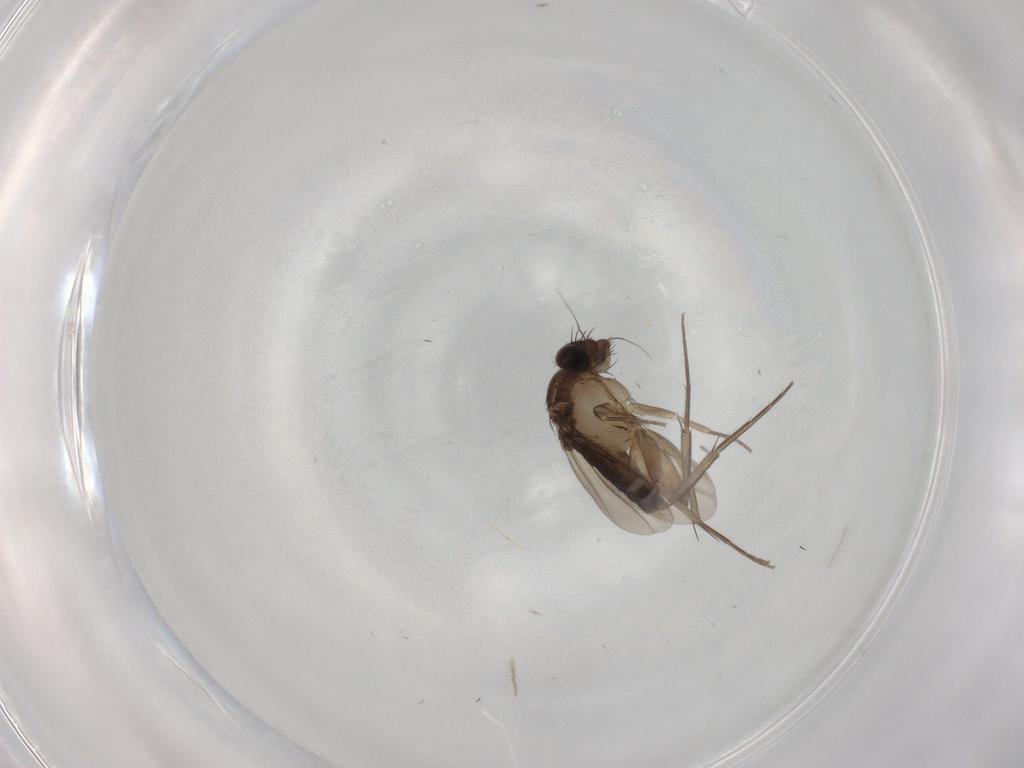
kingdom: Animalia
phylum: Arthropoda
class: Insecta
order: Diptera
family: Phoridae
